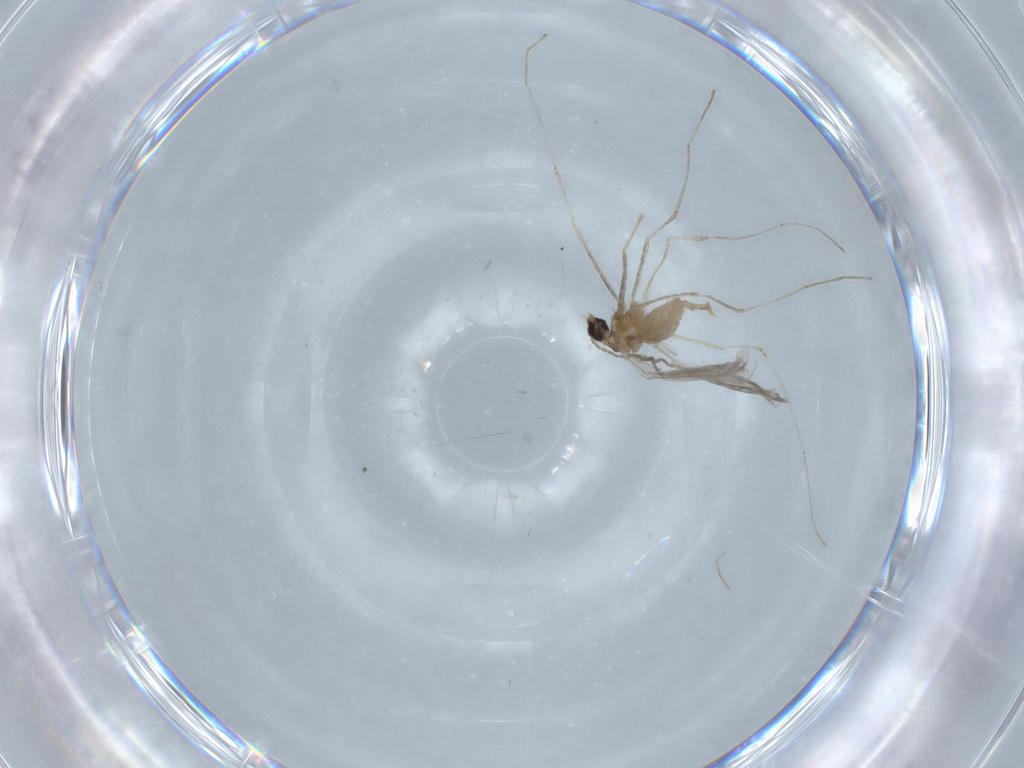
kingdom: Animalia
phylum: Arthropoda
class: Insecta
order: Diptera
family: Cecidomyiidae
